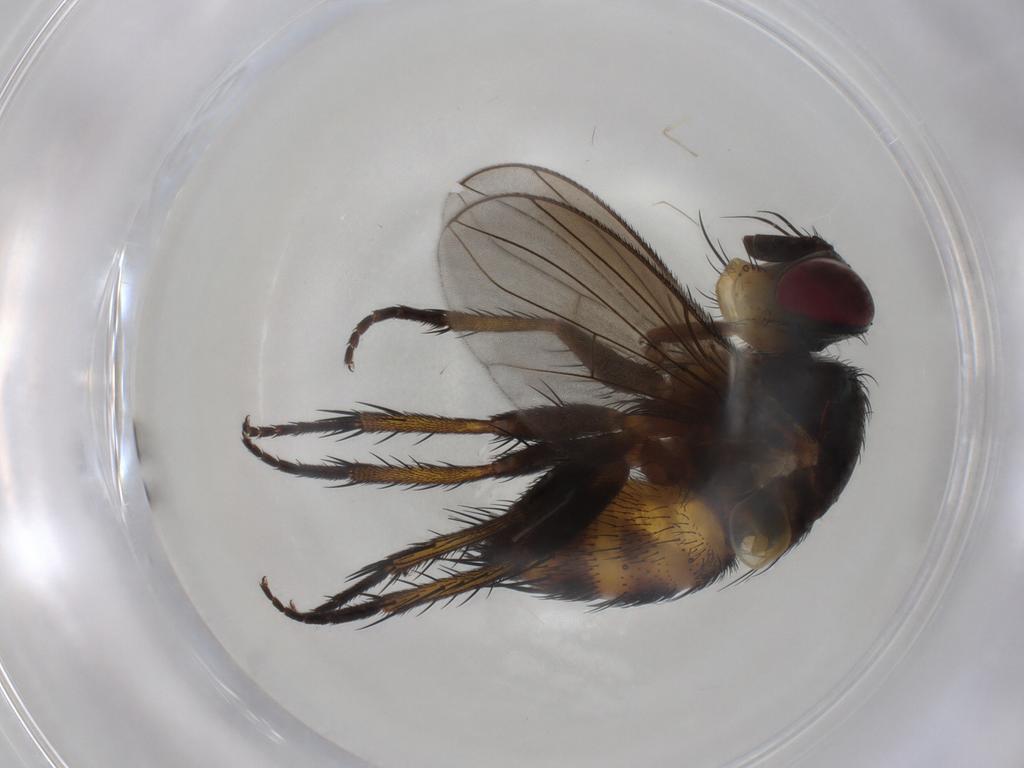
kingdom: Animalia
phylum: Arthropoda
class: Insecta
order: Diptera
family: Tachinidae
